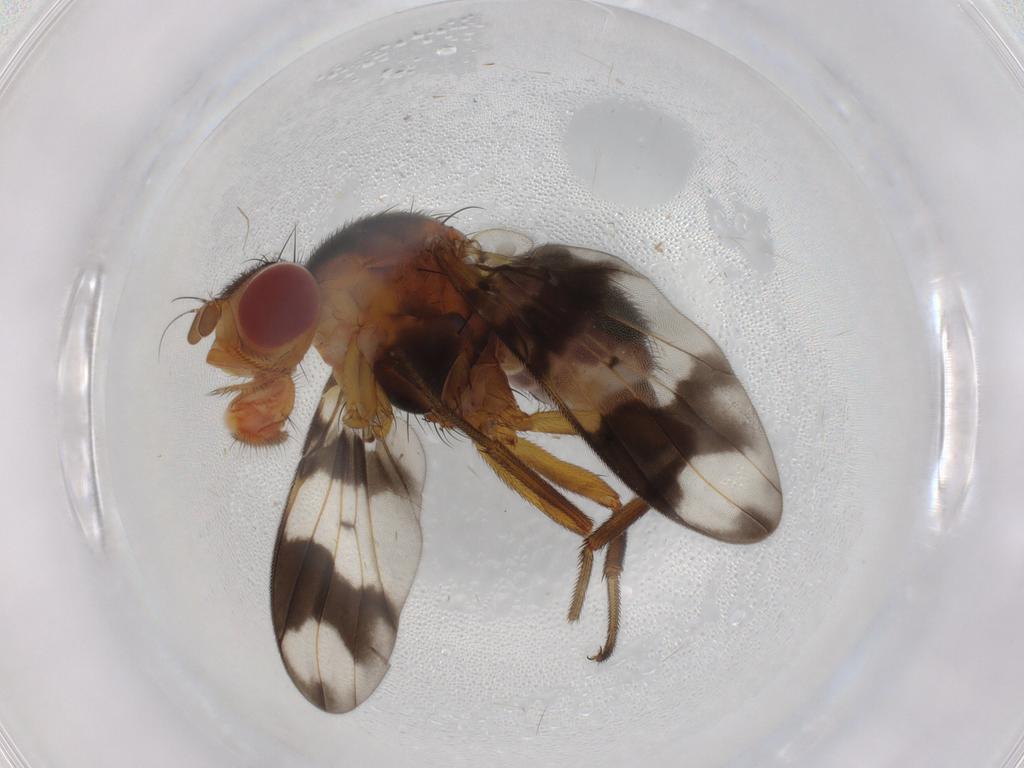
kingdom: Animalia
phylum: Arthropoda
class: Insecta
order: Diptera
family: Richardiidae
